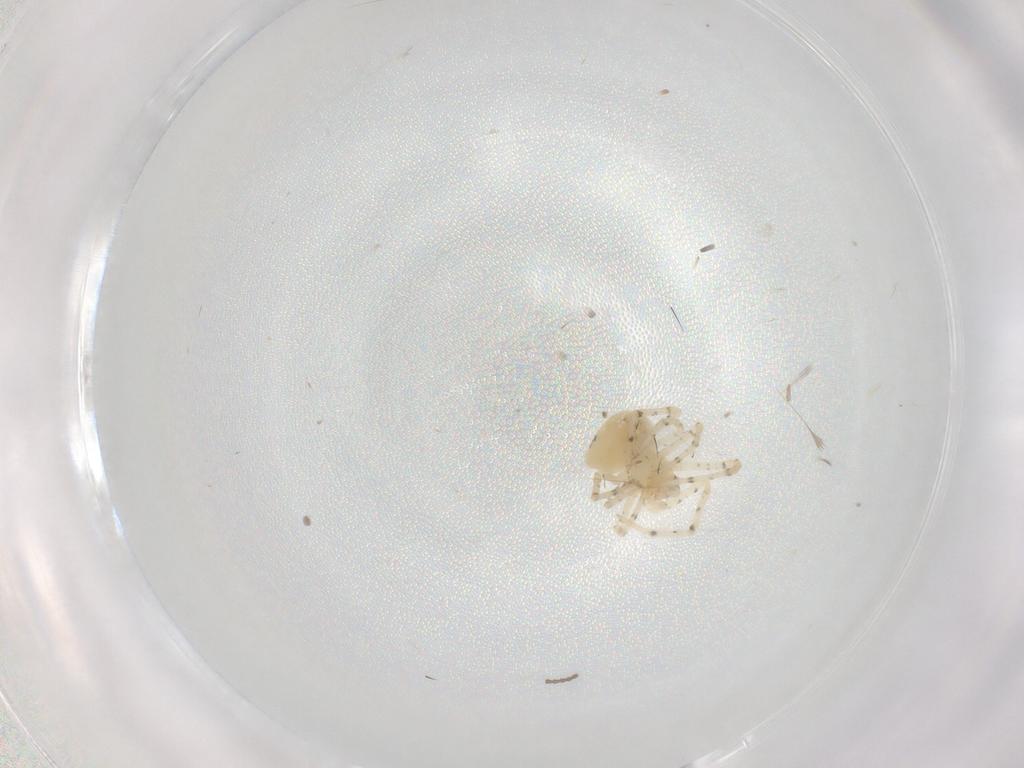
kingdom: Animalia
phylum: Arthropoda
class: Arachnida
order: Araneae
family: Theridiidae
